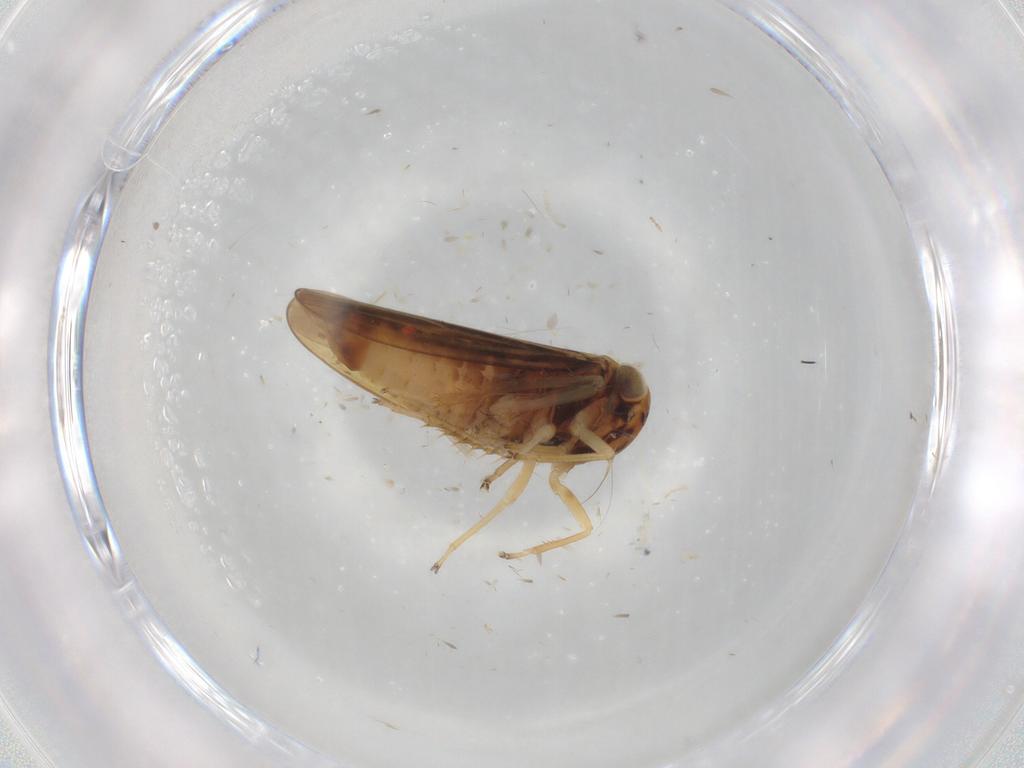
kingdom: Animalia
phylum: Arthropoda
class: Insecta
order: Hemiptera
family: Cicadellidae
